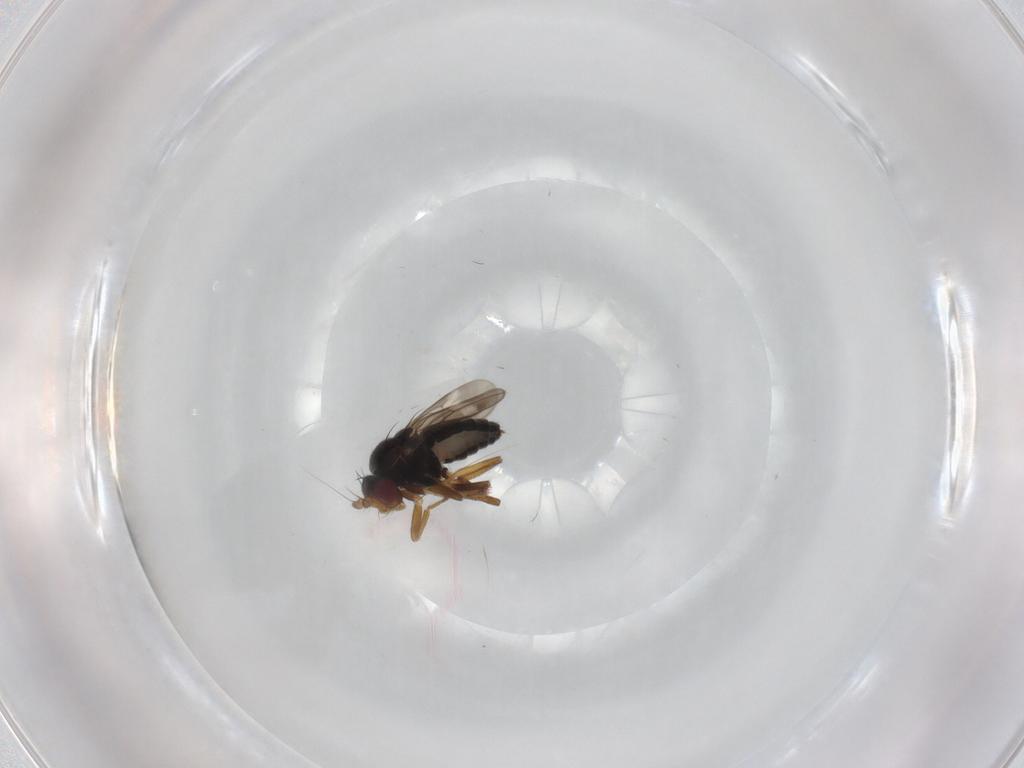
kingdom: Animalia
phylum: Arthropoda
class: Insecta
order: Diptera
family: Sphaeroceridae
